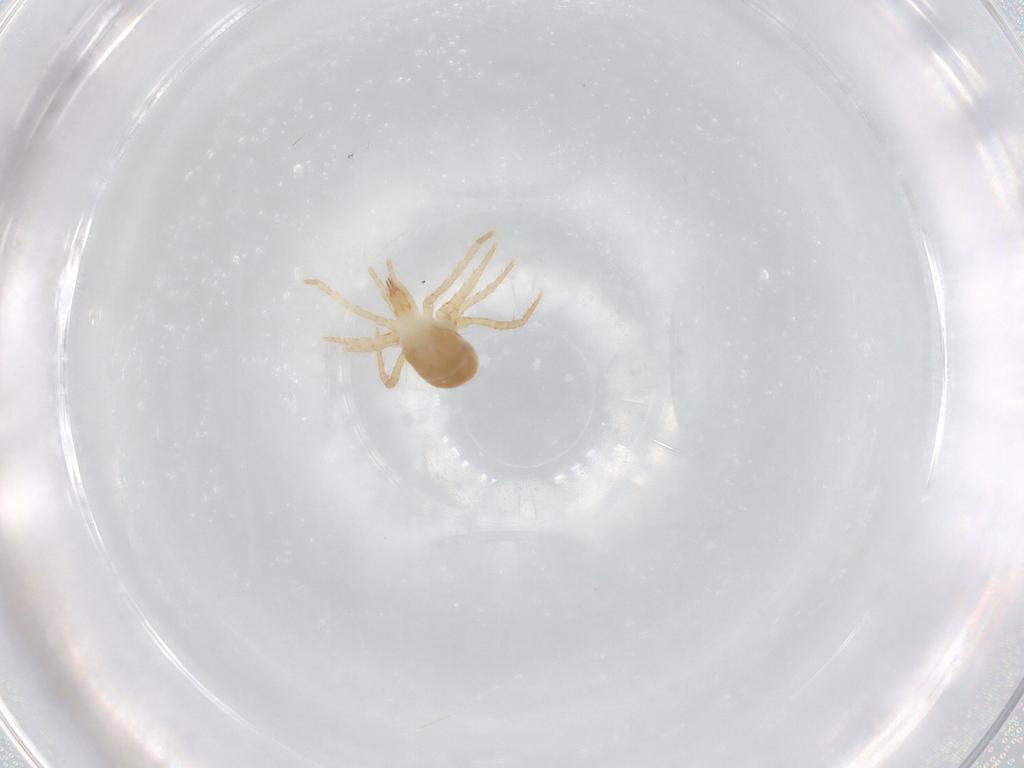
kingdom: Animalia
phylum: Arthropoda
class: Arachnida
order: Mesostigmata
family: Parasitidae
